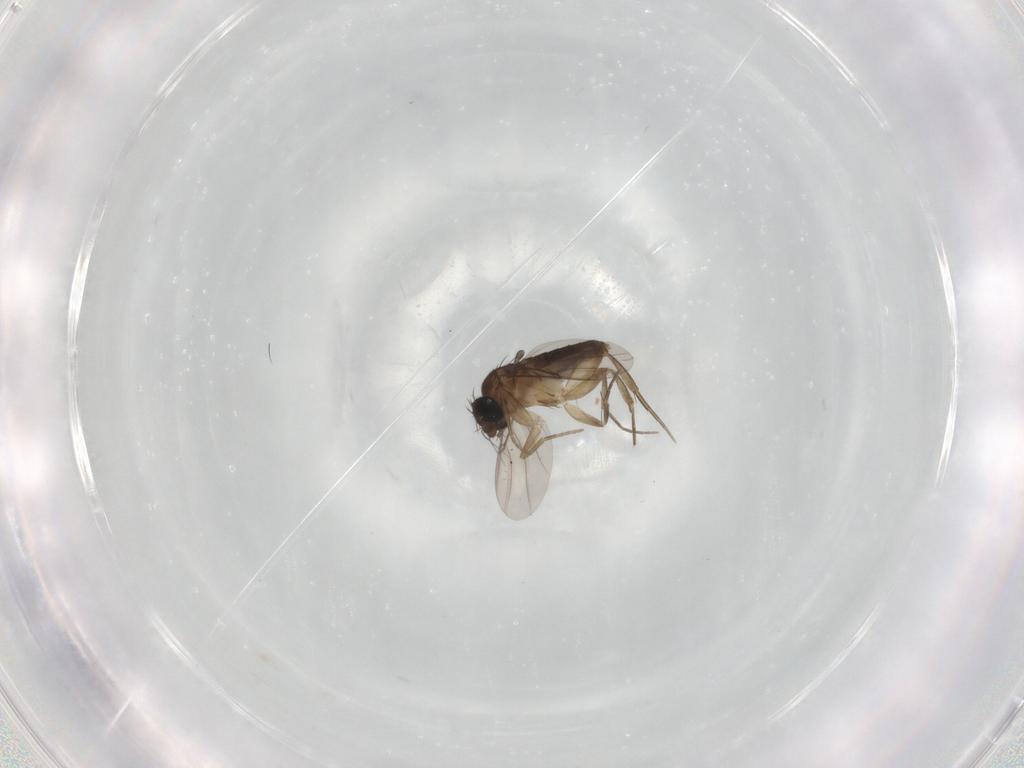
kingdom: Animalia
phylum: Arthropoda
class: Insecta
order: Diptera
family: Phoridae
